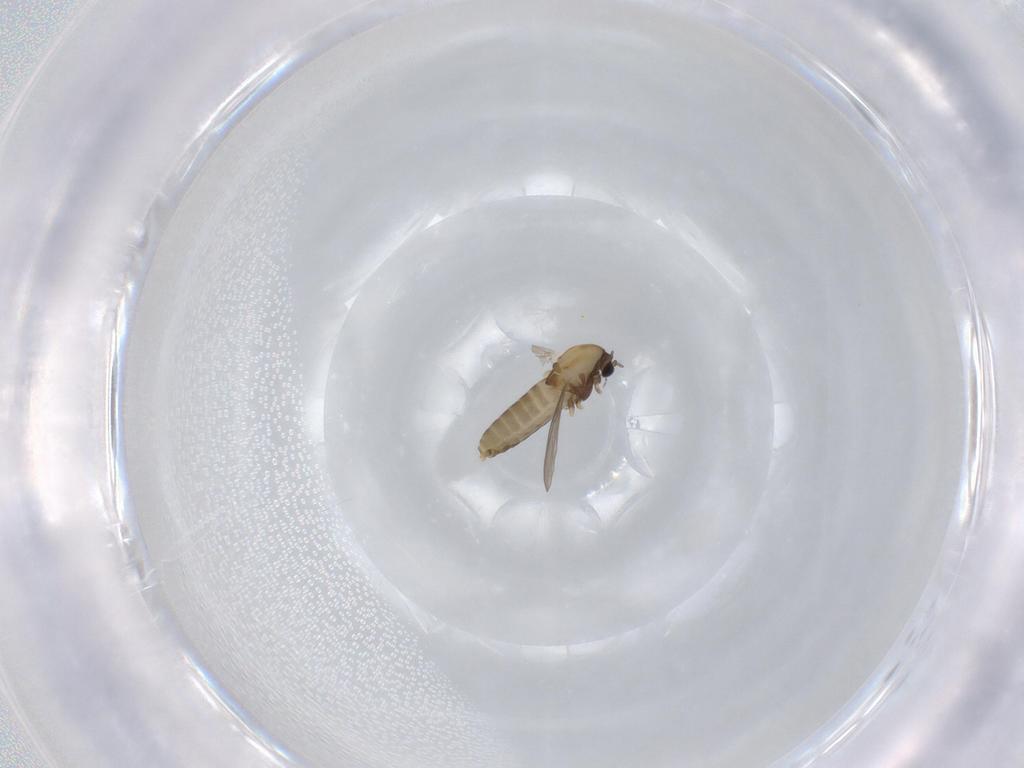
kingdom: Animalia
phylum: Arthropoda
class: Insecta
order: Diptera
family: Chironomidae
